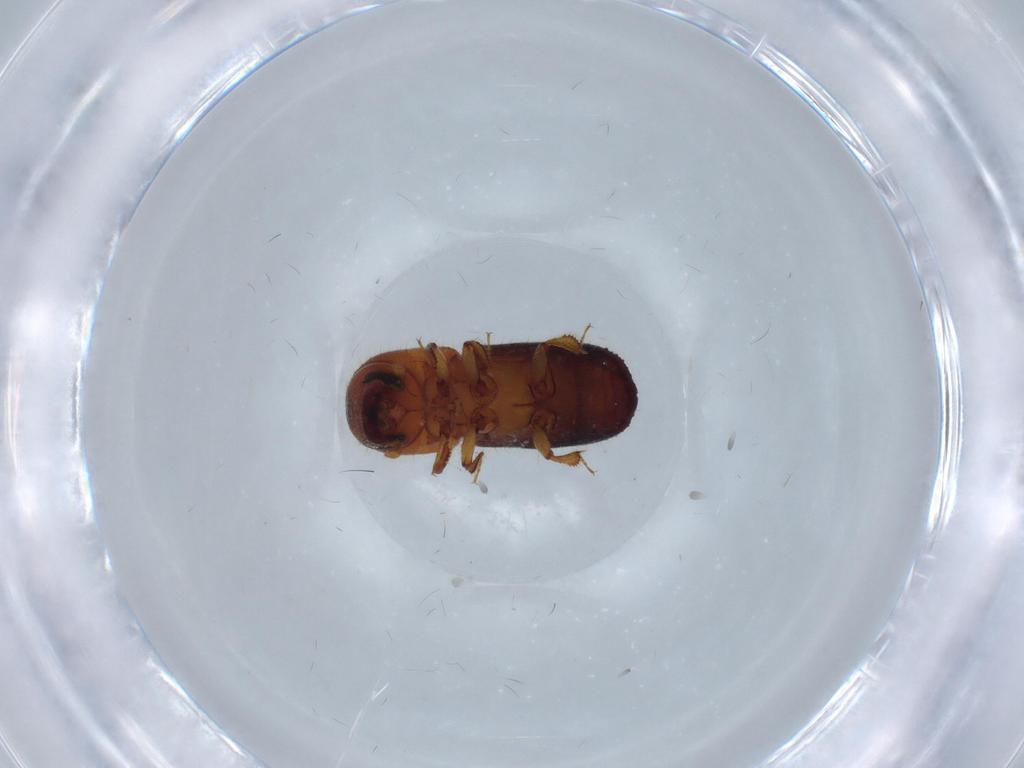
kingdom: Animalia
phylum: Arthropoda
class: Insecta
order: Coleoptera
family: Curculionidae
